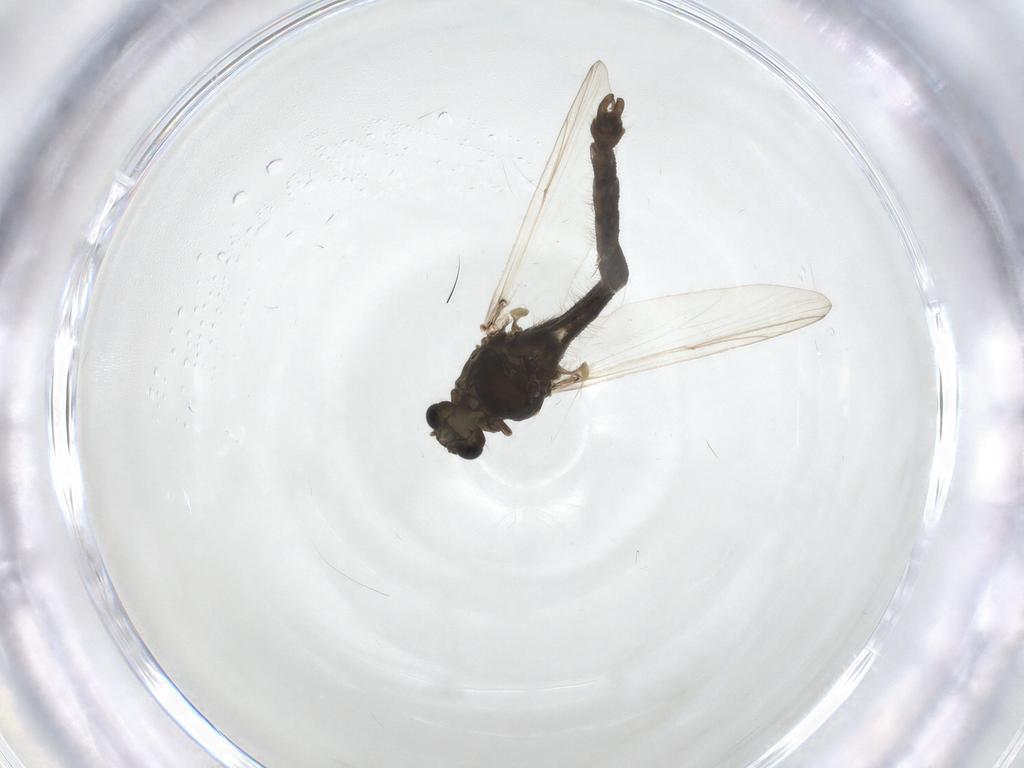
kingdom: Animalia
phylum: Arthropoda
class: Insecta
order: Diptera
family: Chironomidae
